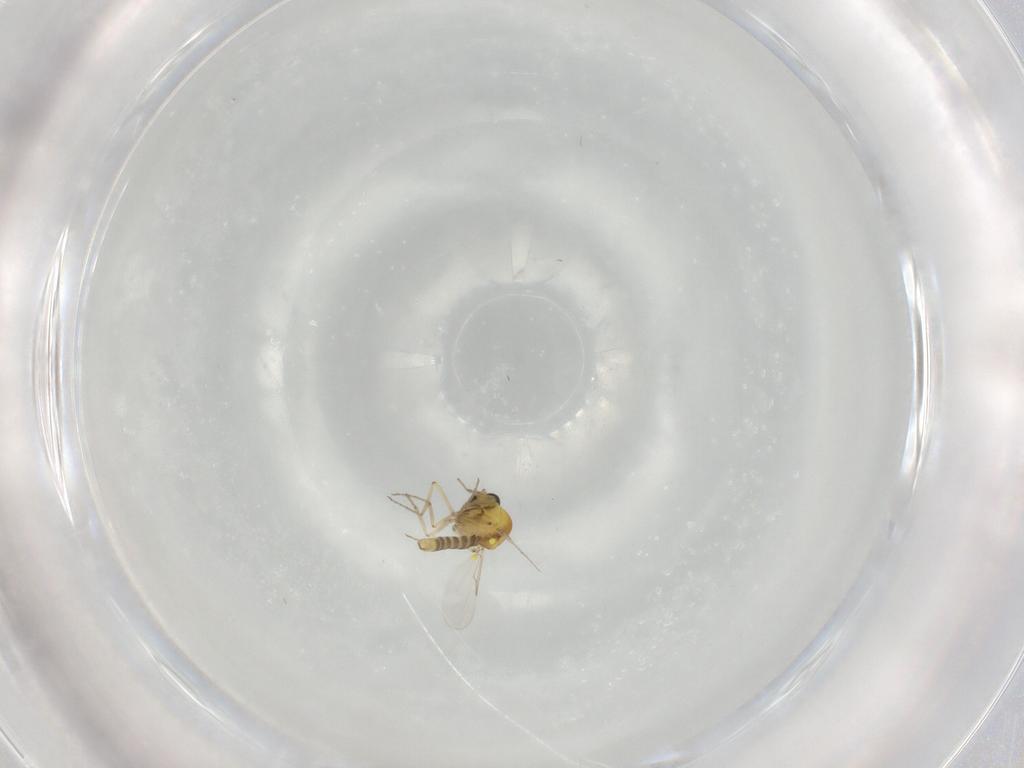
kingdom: Animalia
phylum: Arthropoda
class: Insecta
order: Diptera
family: Ceratopogonidae
